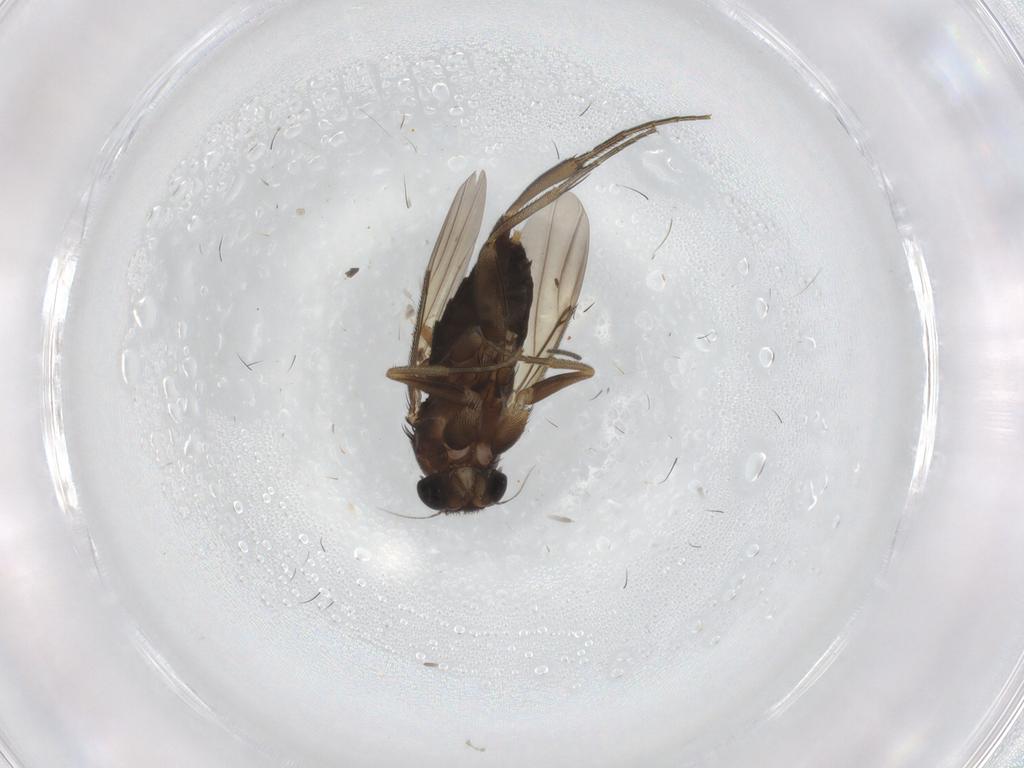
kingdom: Animalia
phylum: Arthropoda
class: Insecta
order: Diptera
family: Phoridae
